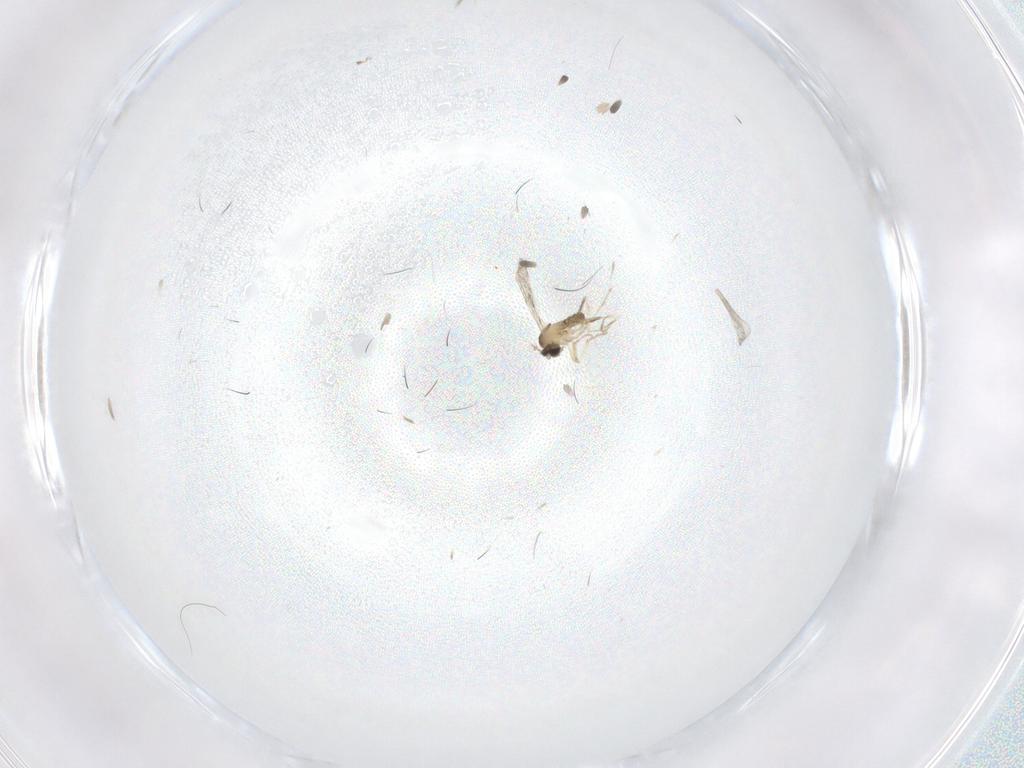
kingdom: Animalia
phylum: Arthropoda
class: Insecta
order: Diptera
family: Cecidomyiidae
